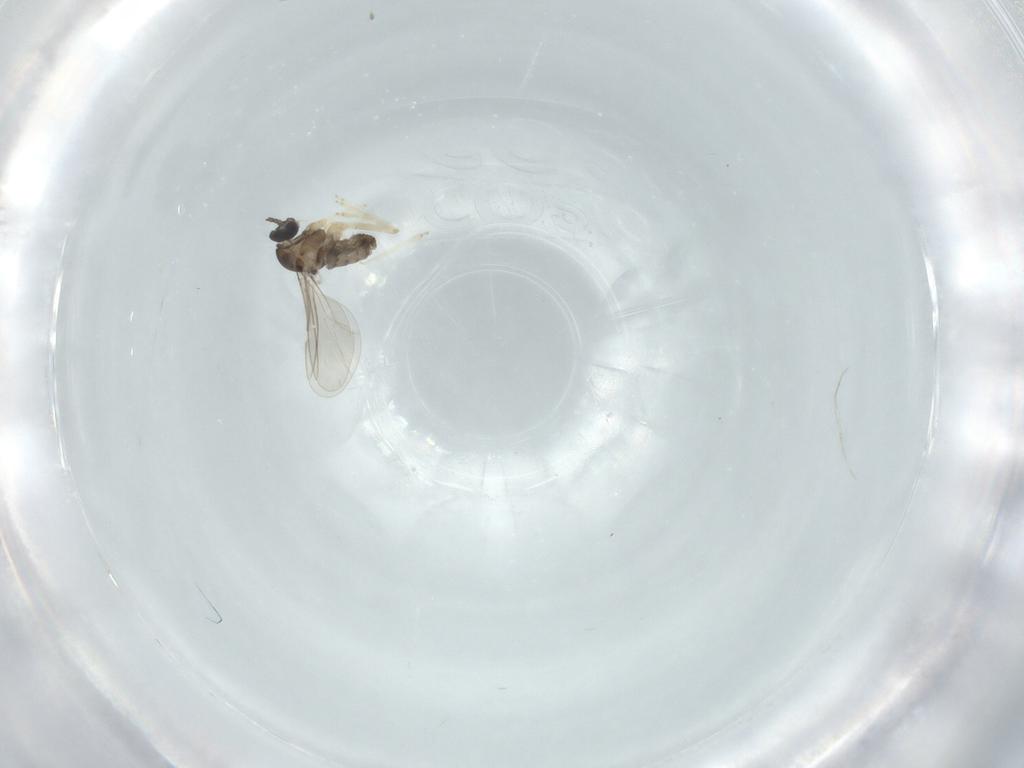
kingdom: Animalia
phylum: Arthropoda
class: Insecta
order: Diptera
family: Cecidomyiidae
